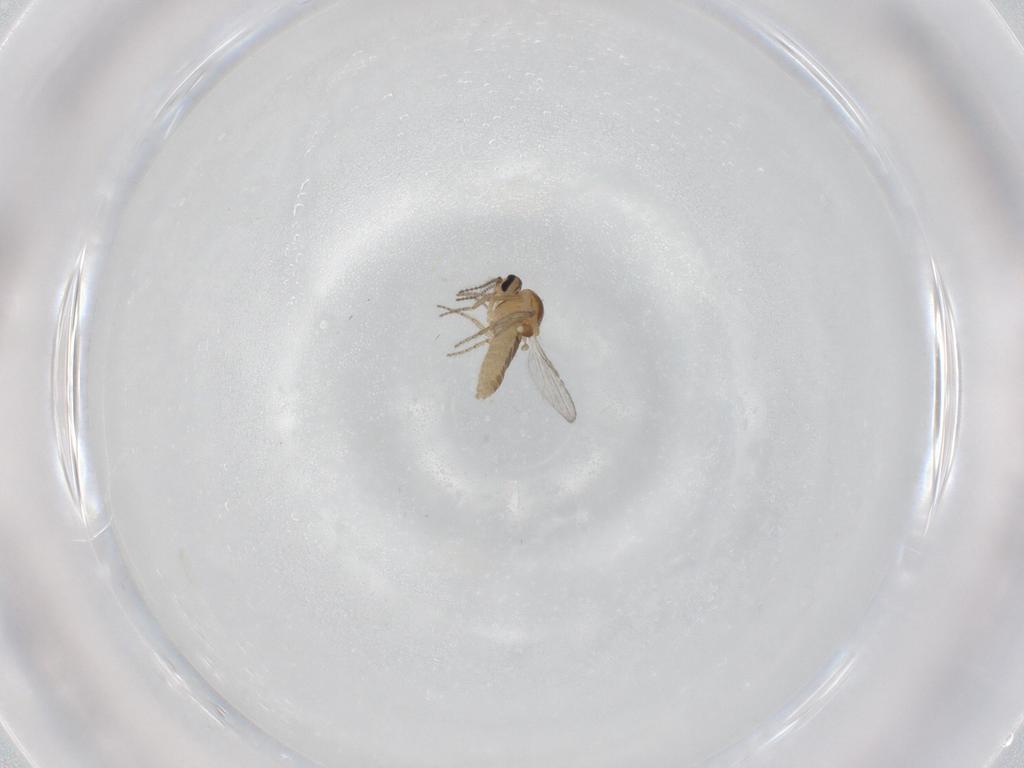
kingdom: Animalia
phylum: Arthropoda
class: Insecta
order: Diptera
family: Ceratopogonidae
